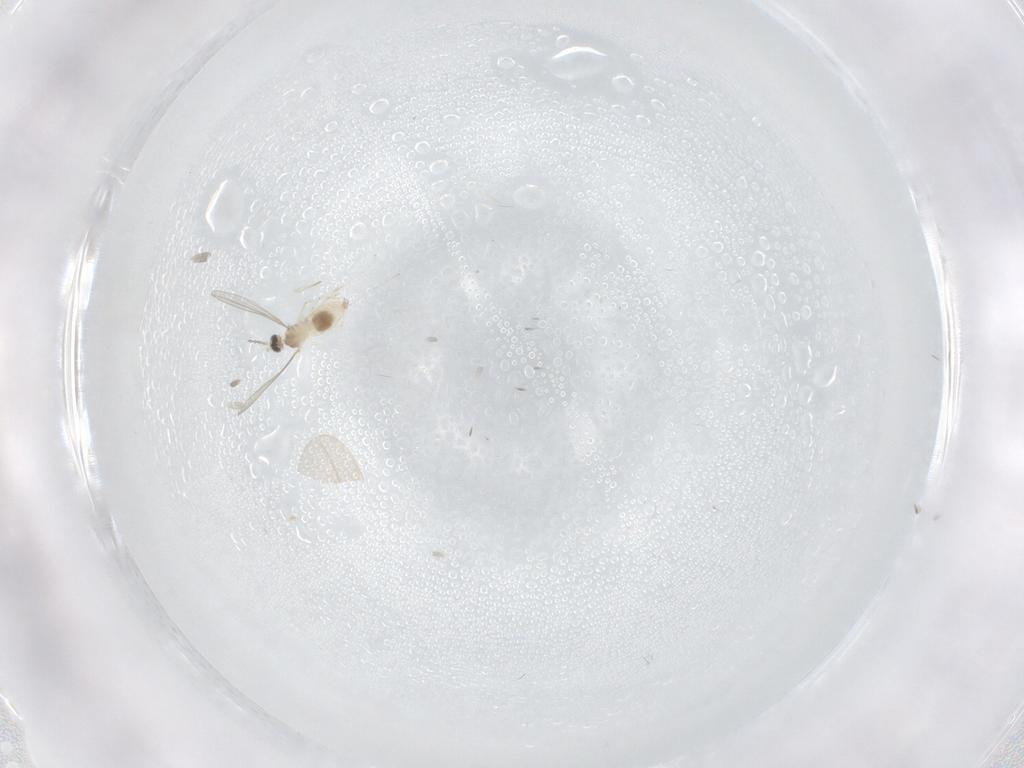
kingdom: Animalia
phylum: Arthropoda
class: Insecta
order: Diptera
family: Cecidomyiidae
